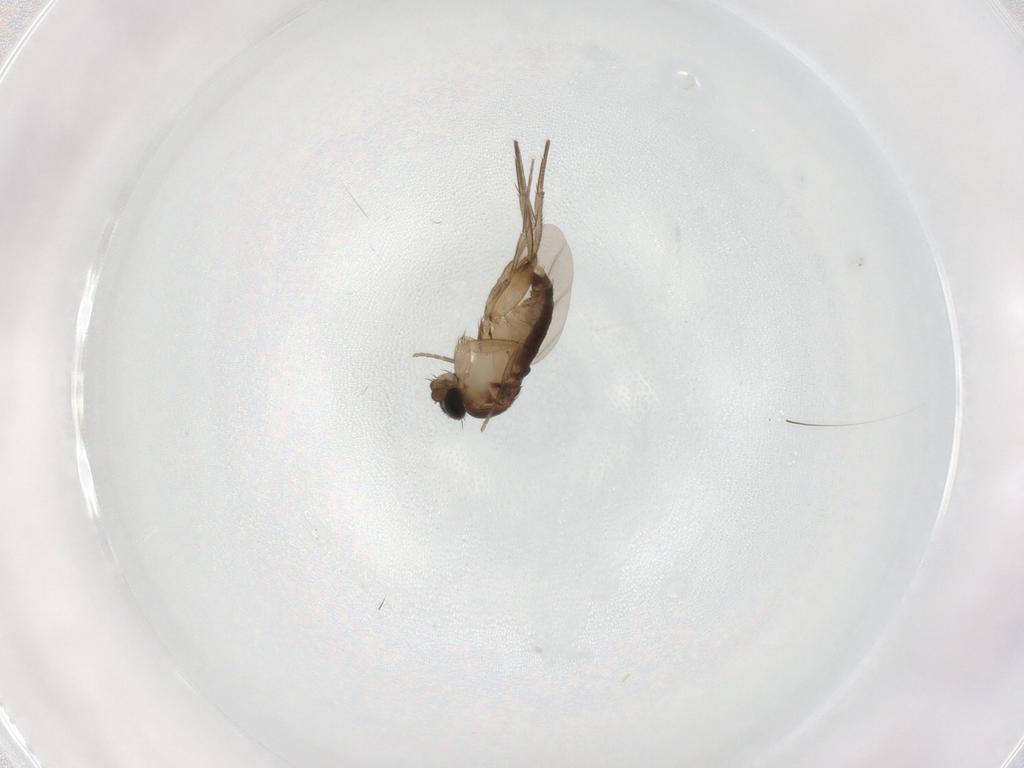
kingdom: Animalia
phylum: Arthropoda
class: Insecta
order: Diptera
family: Phoridae
